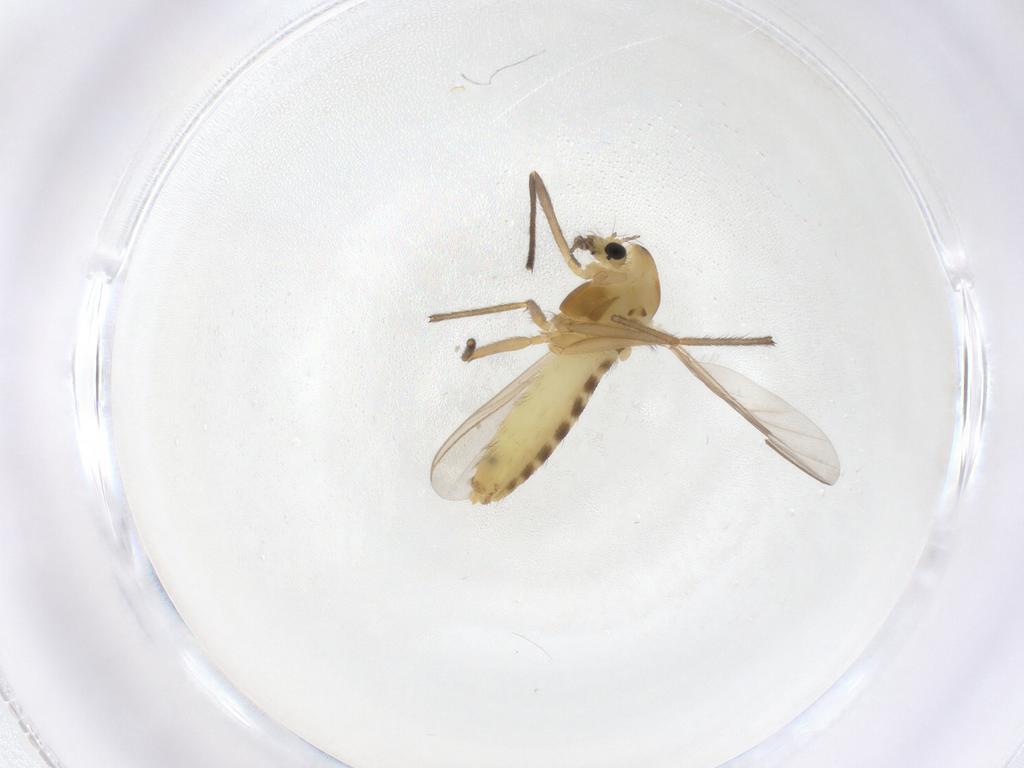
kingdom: Animalia
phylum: Arthropoda
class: Insecta
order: Diptera
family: Chironomidae
